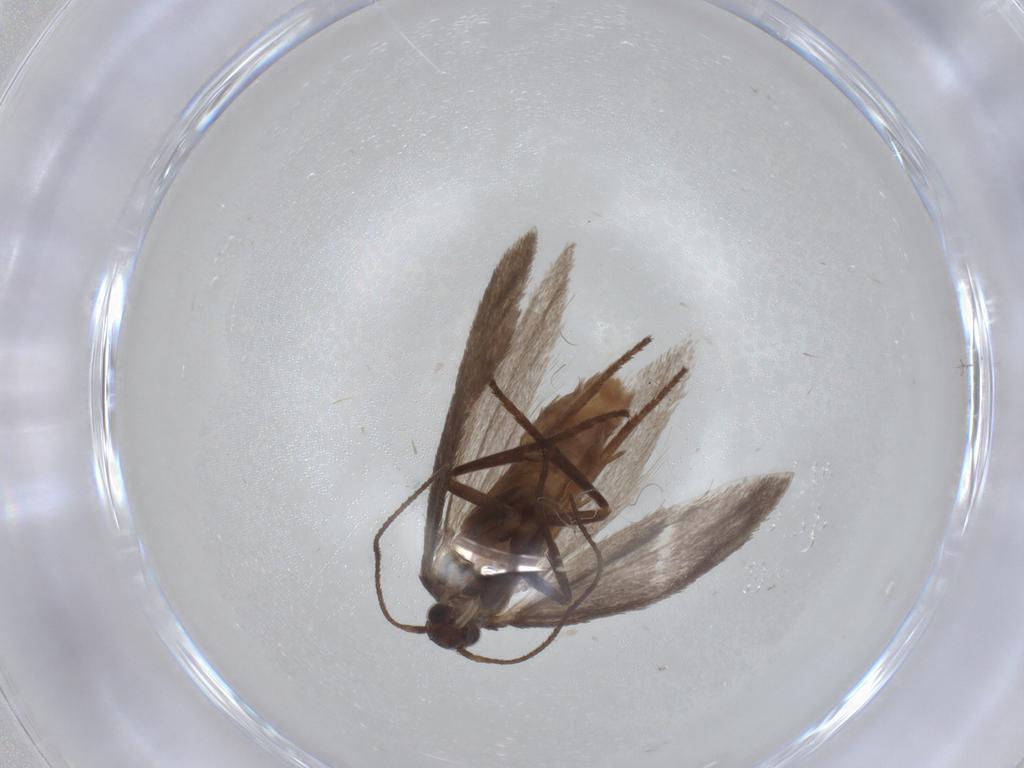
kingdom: Animalia
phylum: Arthropoda
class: Insecta
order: Lepidoptera
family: Limacodidae
